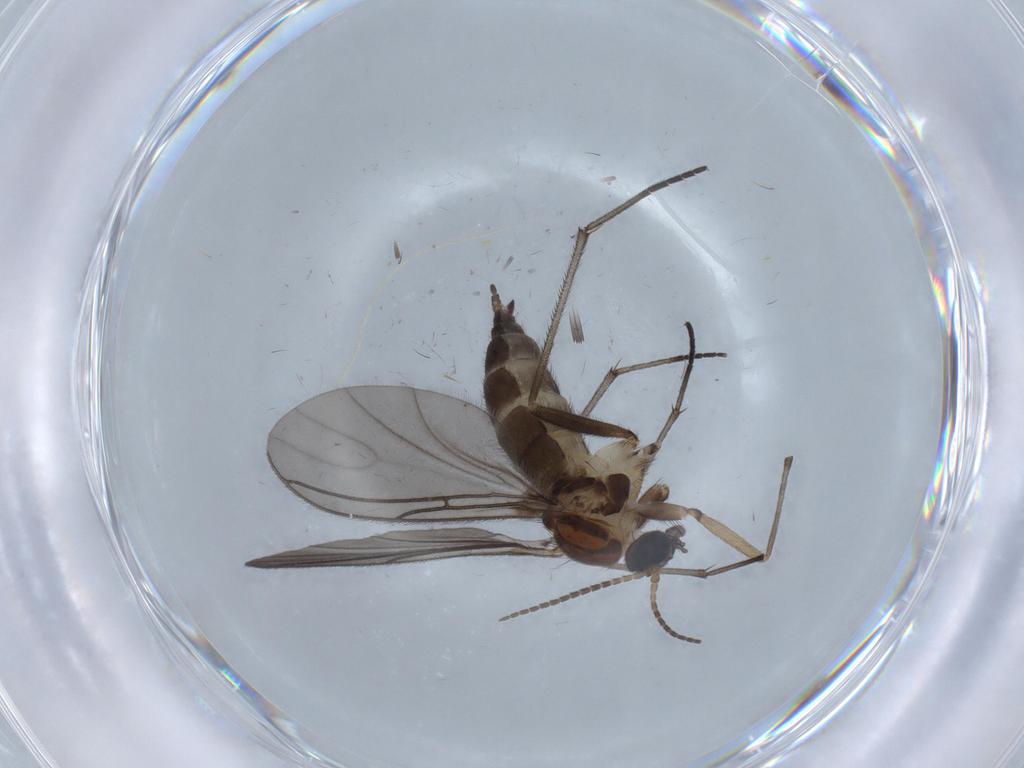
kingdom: Animalia
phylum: Arthropoda
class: Insecta
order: Diptera
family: Sciaridae
